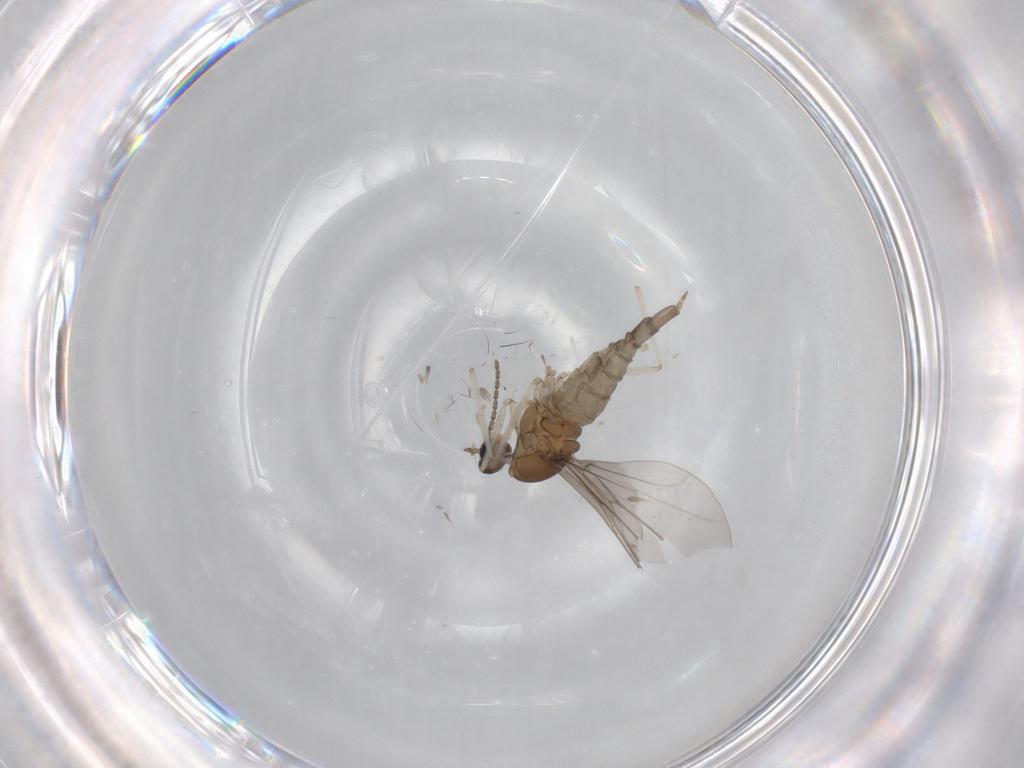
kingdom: Animalia
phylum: Arthropoda
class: Insecta
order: Diptera
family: Cecidomyiidae
